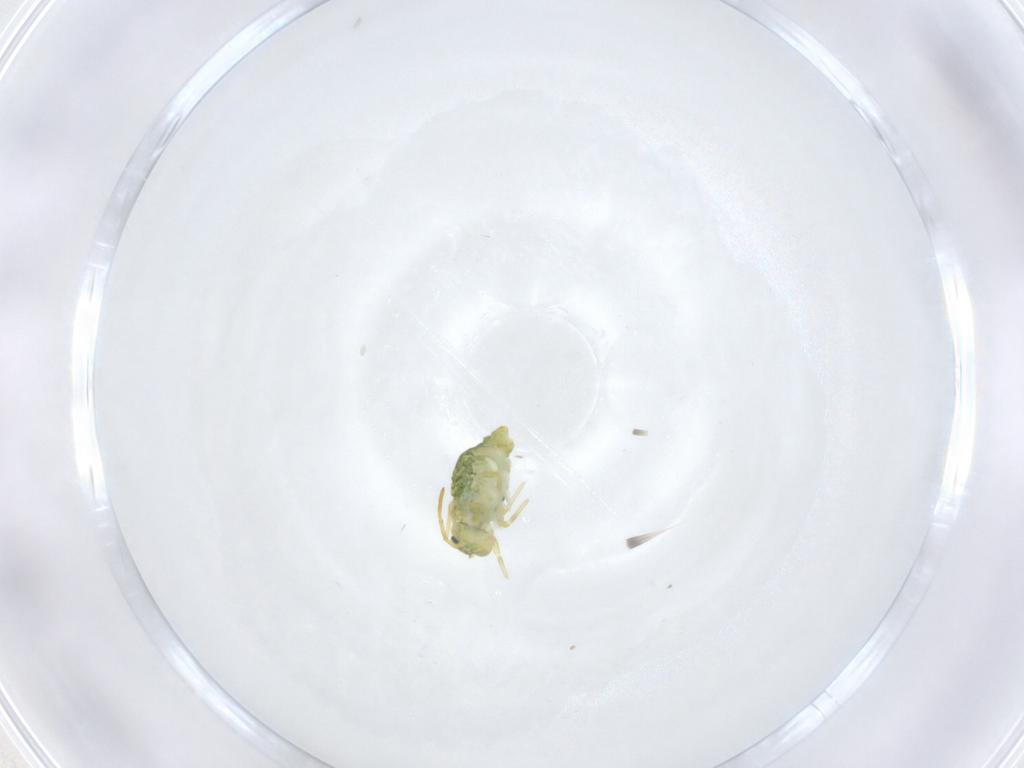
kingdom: Animalia
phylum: Arthropoda
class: Collembola
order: Symphypleona
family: Katiannidae
